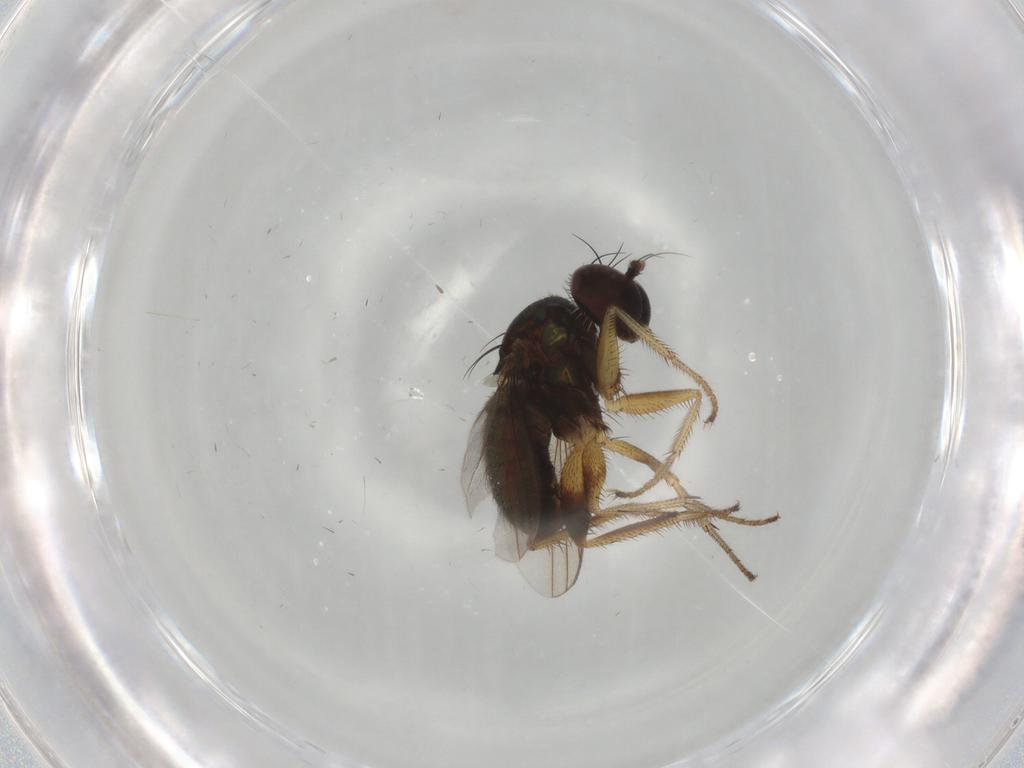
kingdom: Animalia
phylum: Arthropoda
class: Insecta
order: Diptera
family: Dolichopodidae
